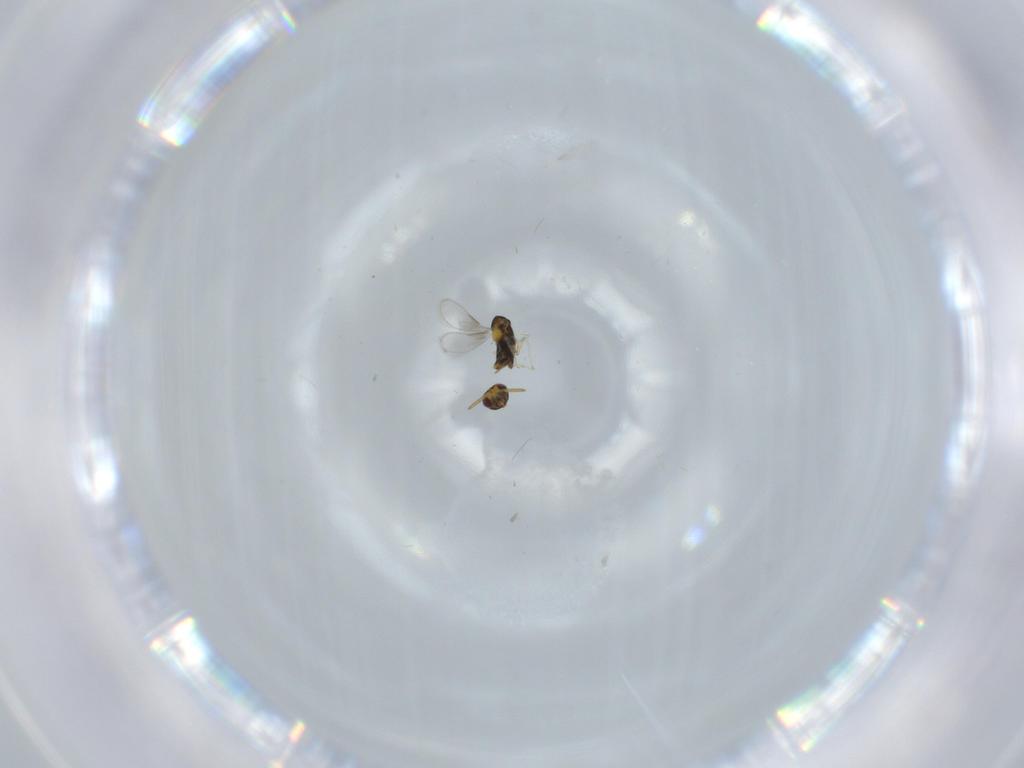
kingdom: Animalia
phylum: Arthropoda
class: Insecta
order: Hymenoptera
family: Aphelinidae
